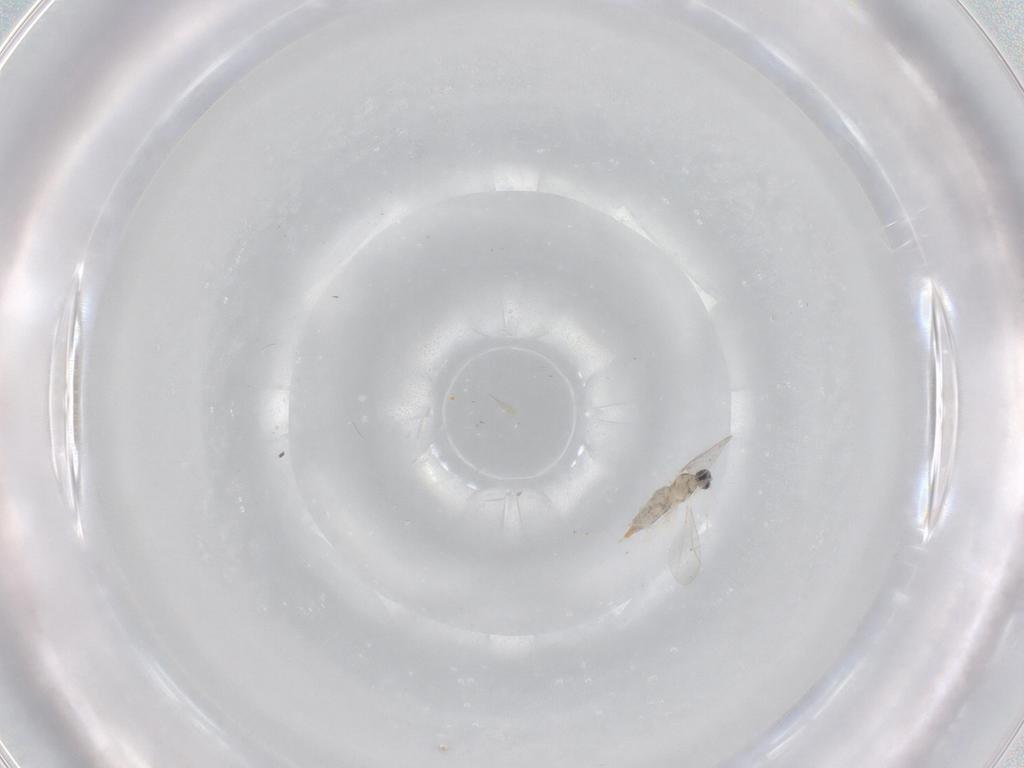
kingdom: Animalia
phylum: Arthropoda
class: Insecta
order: Diptera
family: Cecidomyiidae
